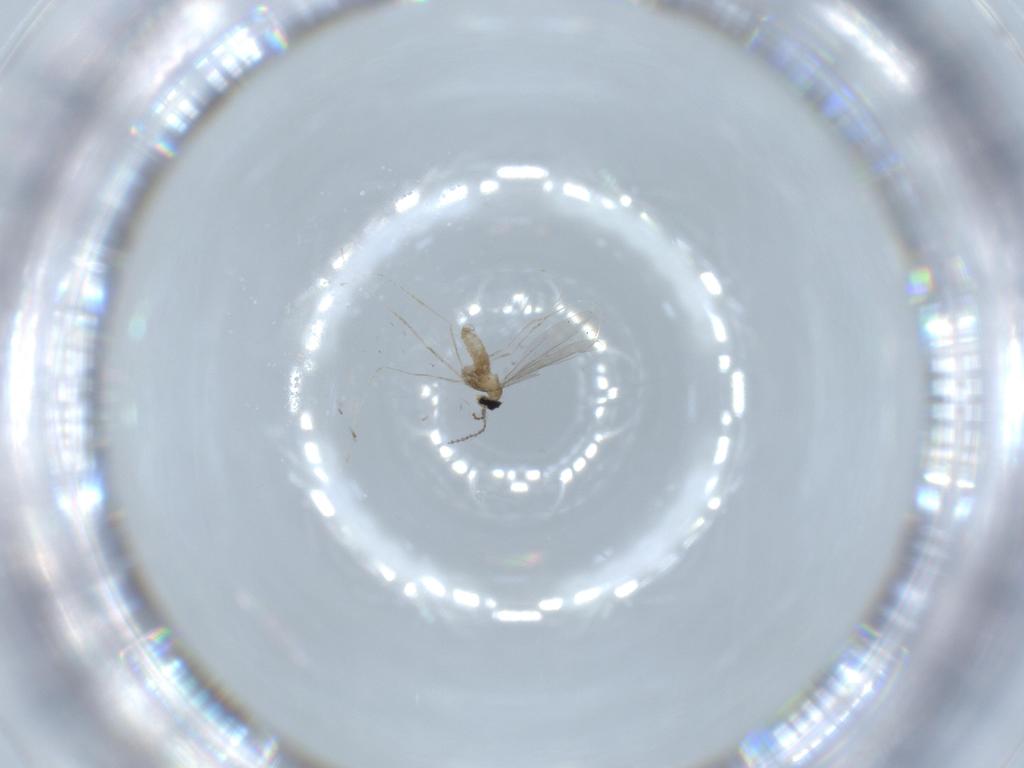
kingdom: Animalia
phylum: Arthropoda
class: Insecta
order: Diptera
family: Cecidomyiidae
